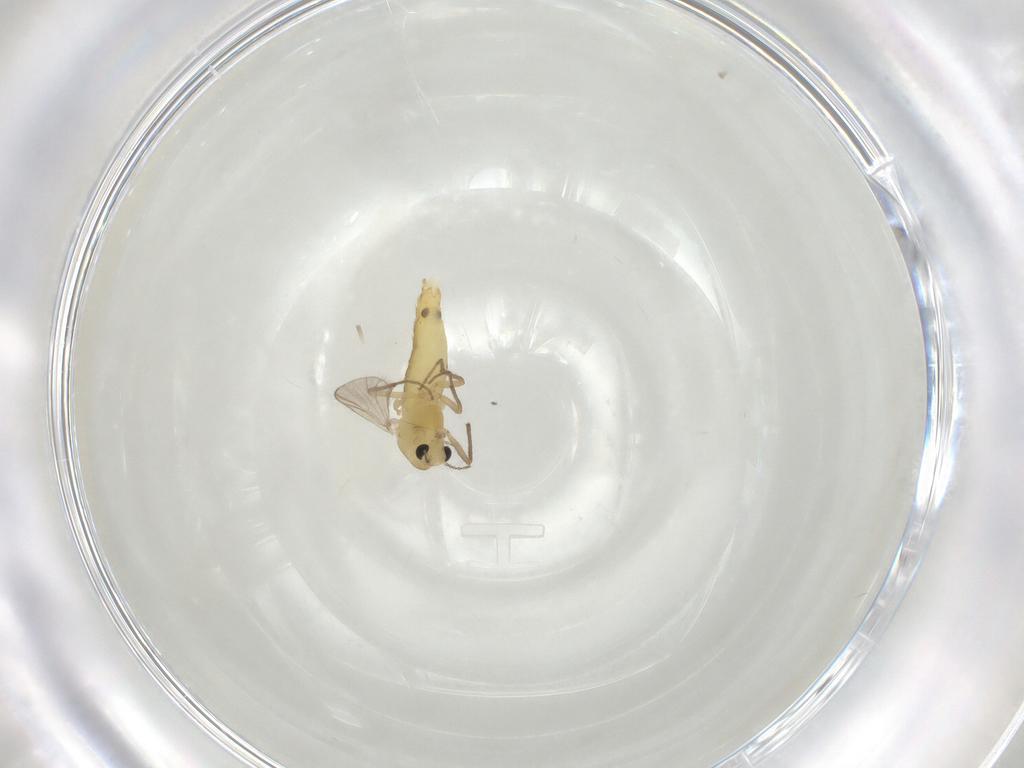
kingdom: Animalia
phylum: Arthropoda
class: Insecta
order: Diptera
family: Chironomidae
